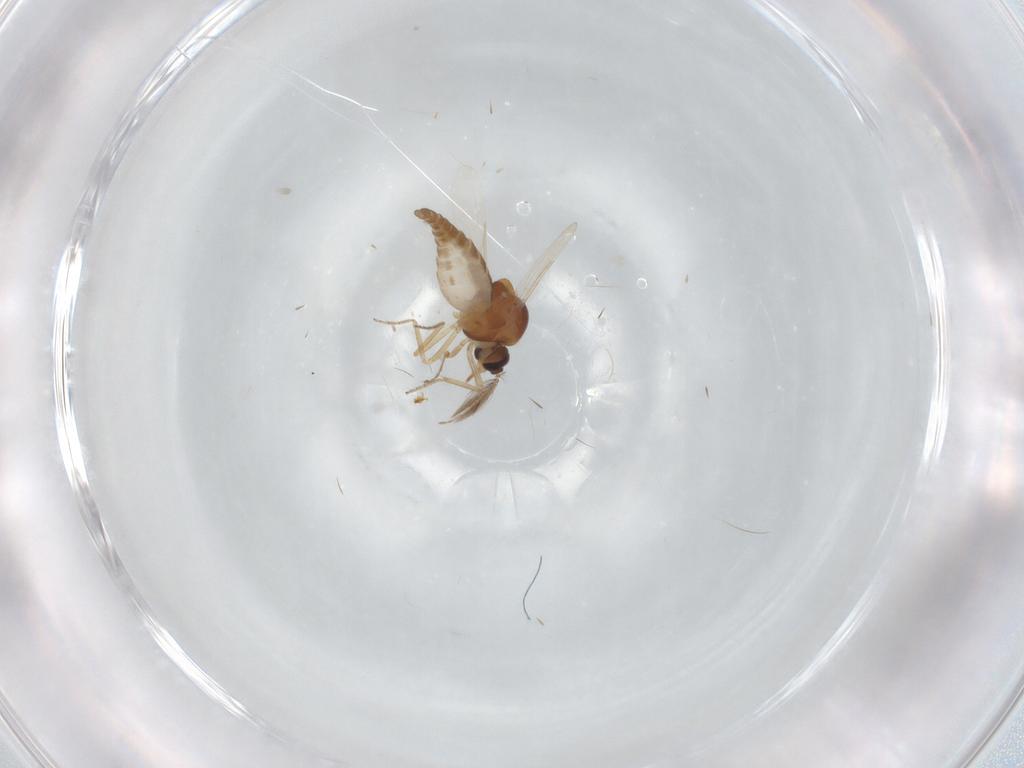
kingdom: Animalia
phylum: Arthropoda
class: Insecta
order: Diptera
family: Ceratopogonidae
